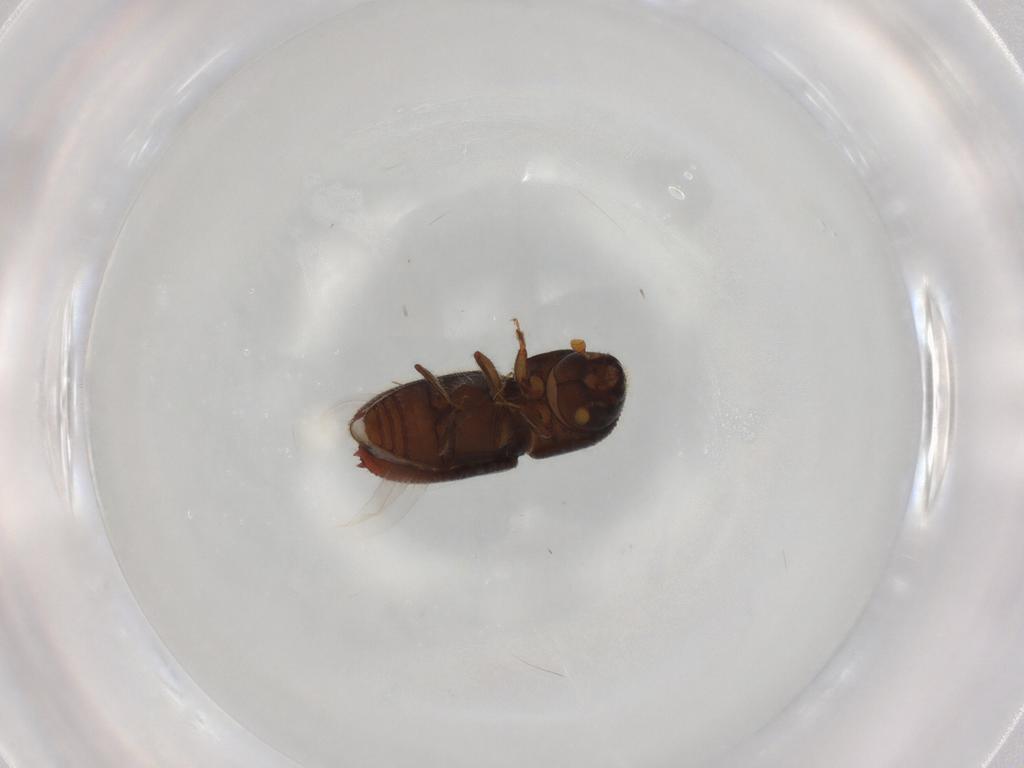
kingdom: Animalia
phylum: Arthropoda
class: Insecta
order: Coleoptera
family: Curculionidae
